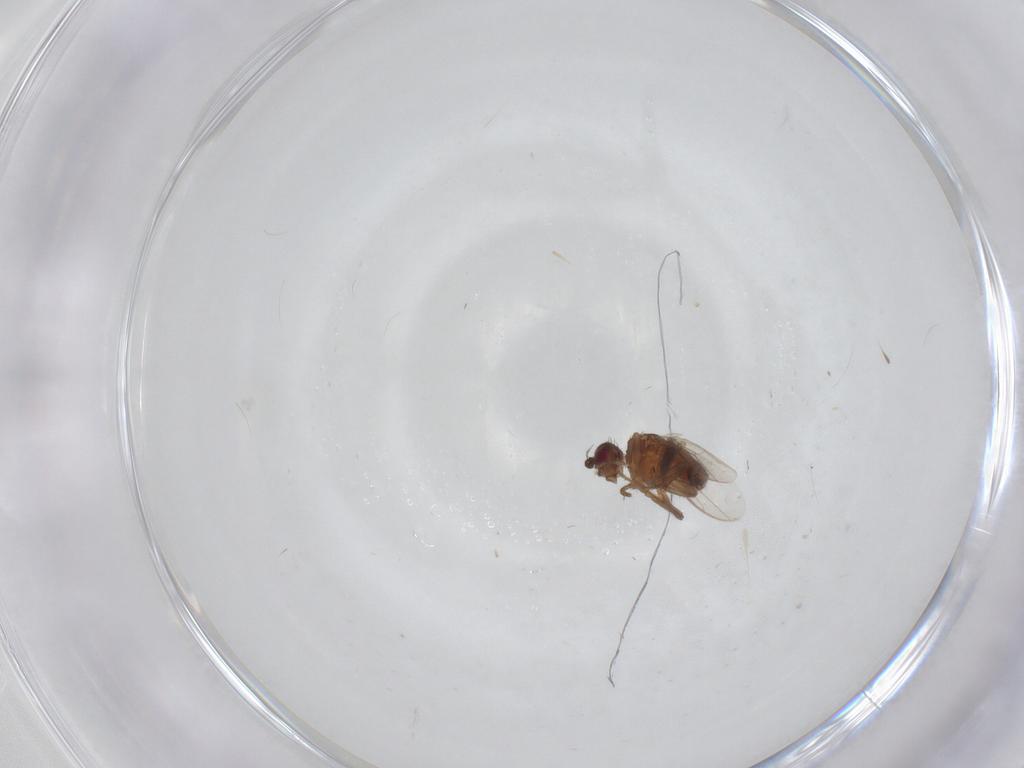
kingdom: Animalia
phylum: Arthropoda
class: Insecta
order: Diptera
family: Sphaeroceridae
